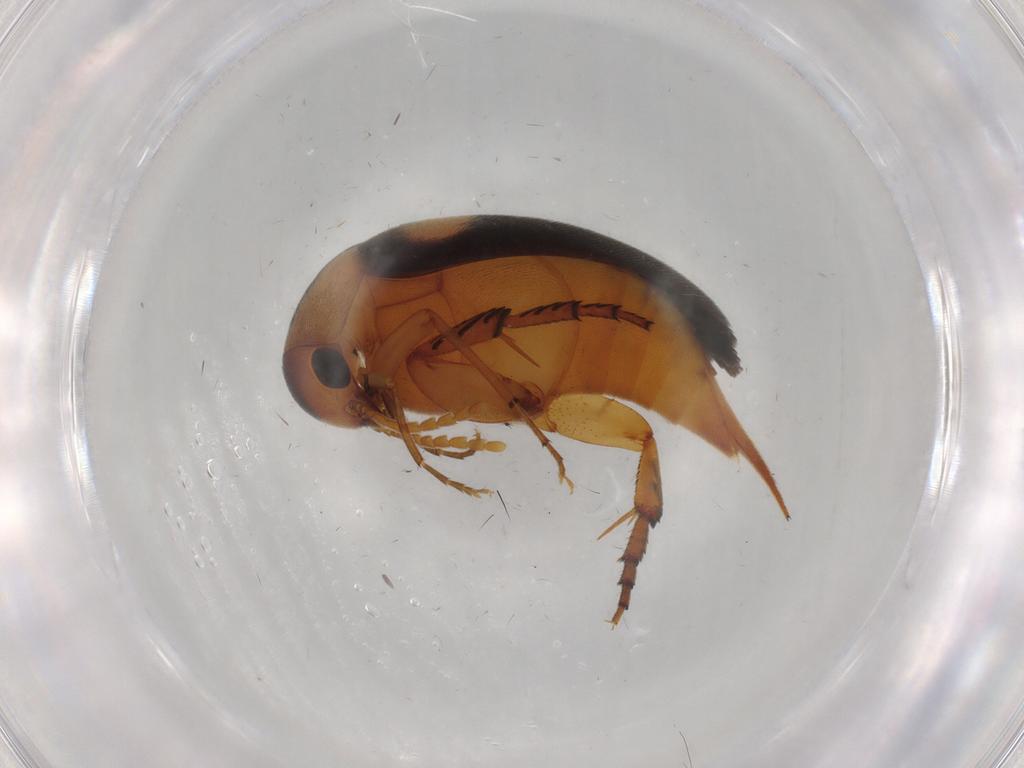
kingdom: Animalia
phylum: Arthropoda
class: Insecta
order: Coleoptera
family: Mordellidae
